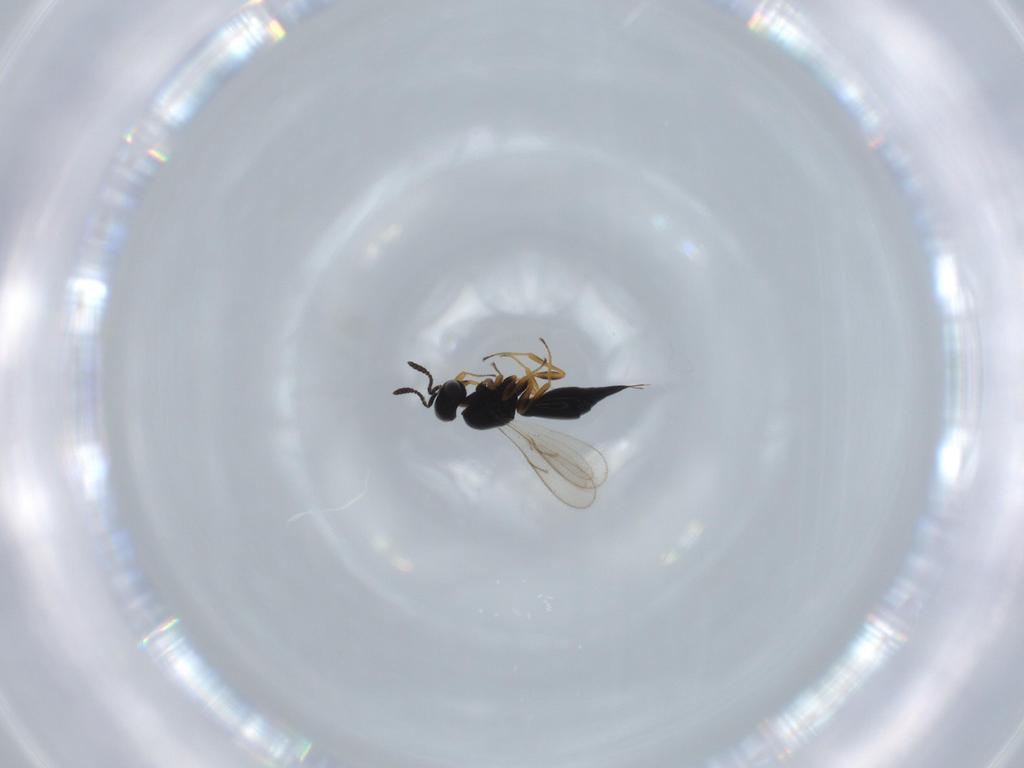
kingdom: Animalia
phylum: Arthropoda
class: Insecta
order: Hymenoptera
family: Scelionidae
